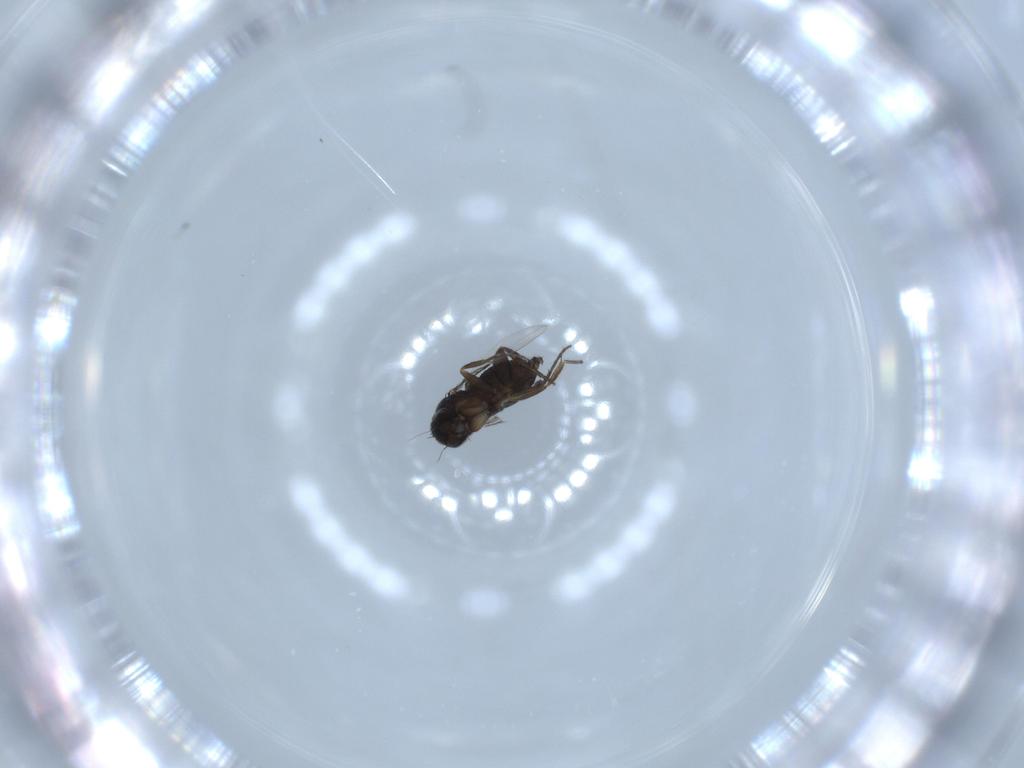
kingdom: Animalia
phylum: Arthropoda
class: Insecta
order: Diptera
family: Phoridae
